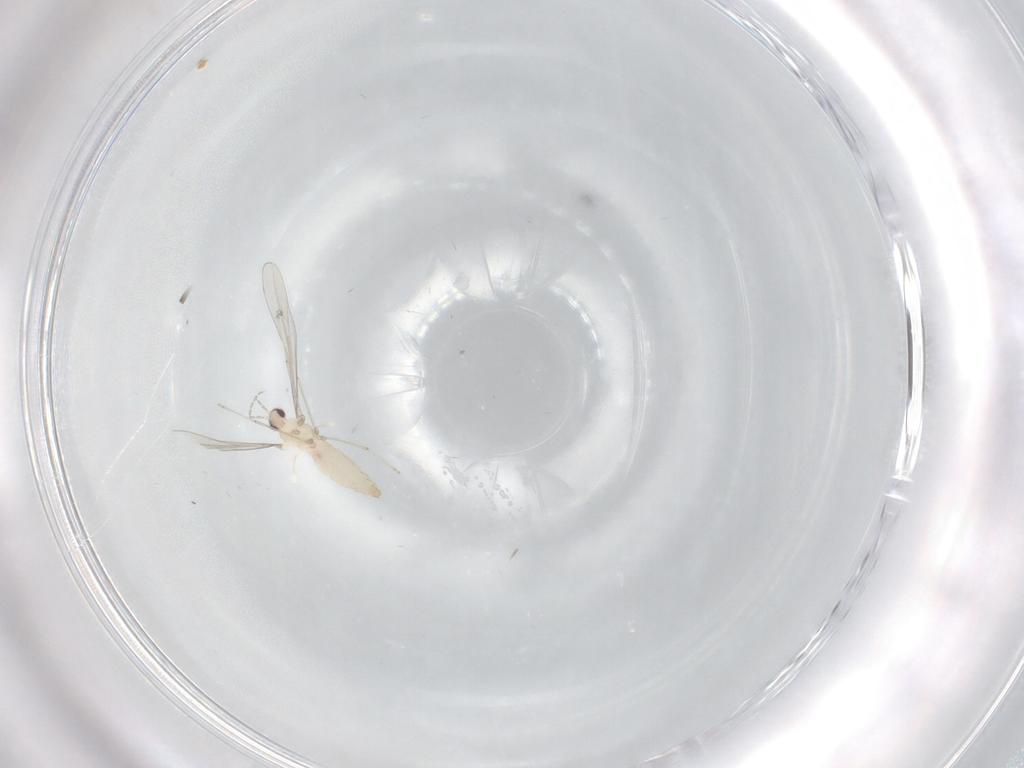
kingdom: Animalia
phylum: Arthropoda
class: Insecta
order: Diptera
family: Cecidomyiidae
